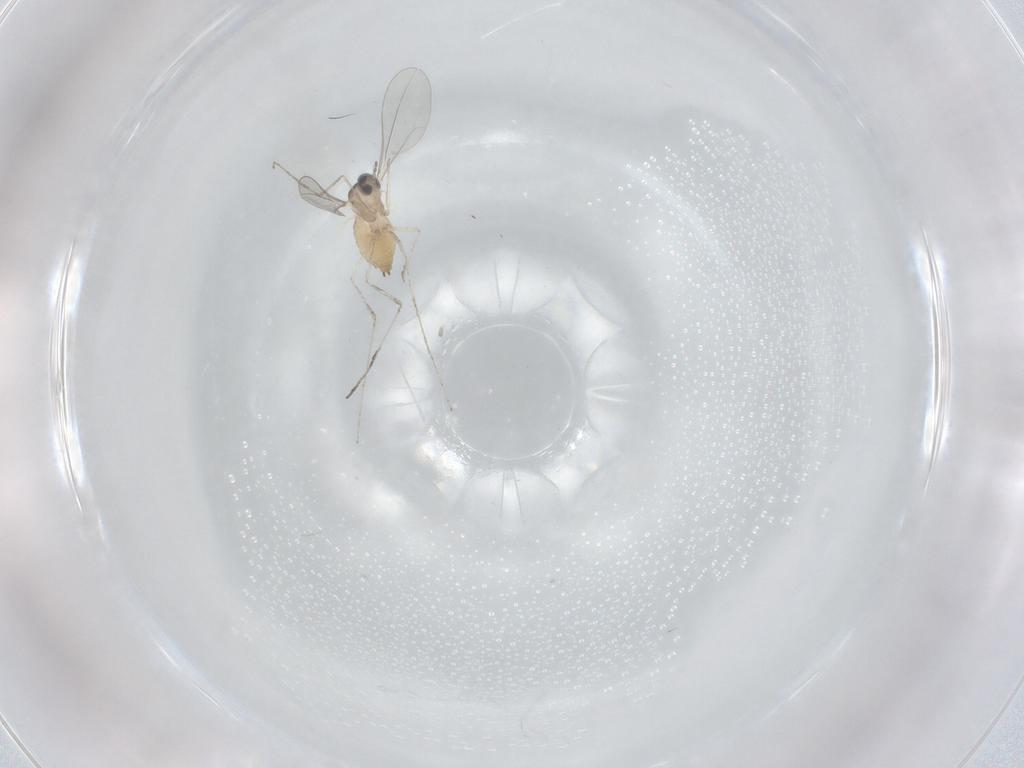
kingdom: Animalia
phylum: Arthropoda
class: Insecta
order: Diptera
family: Cecidomyiidae
